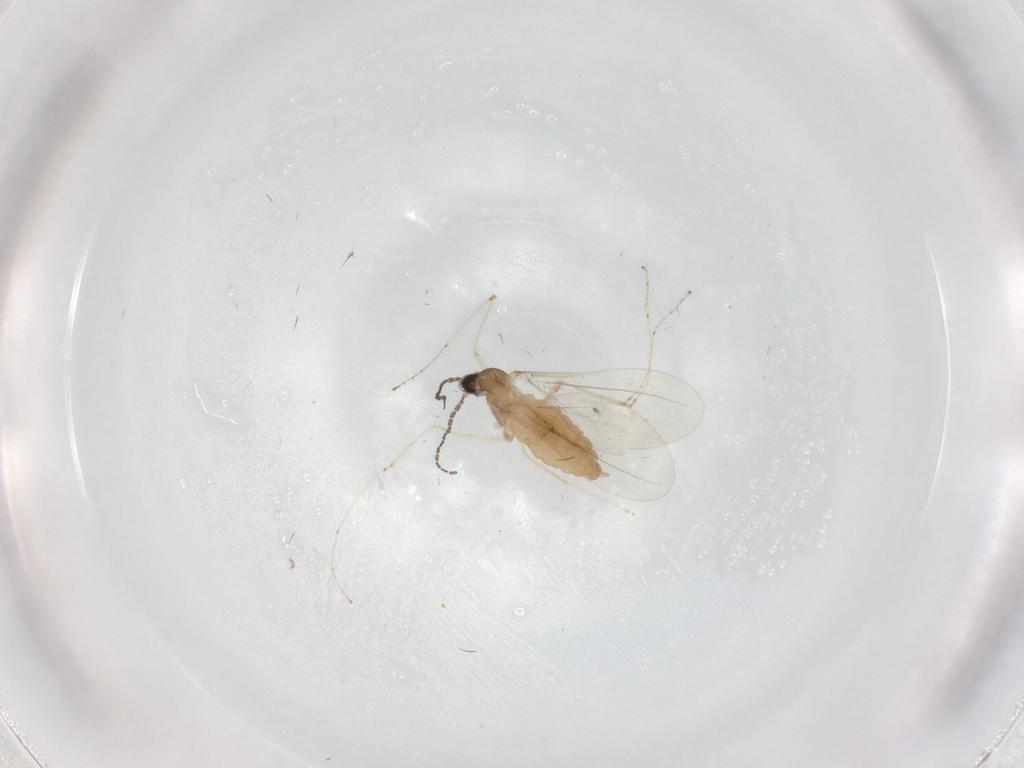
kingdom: Animalia
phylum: Arthropoda
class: Insecta
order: Diptera
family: Cecidomyiidae
